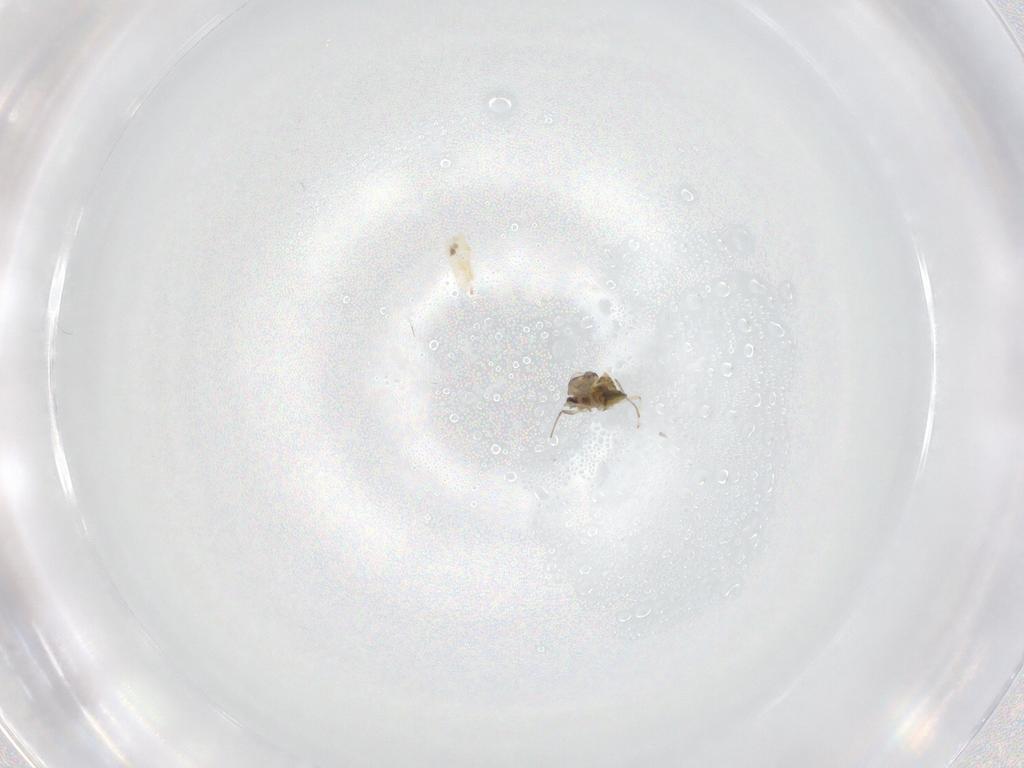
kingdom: Animalia
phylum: Arthropoda
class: Insecta
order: Diptera
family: Chironomidae
